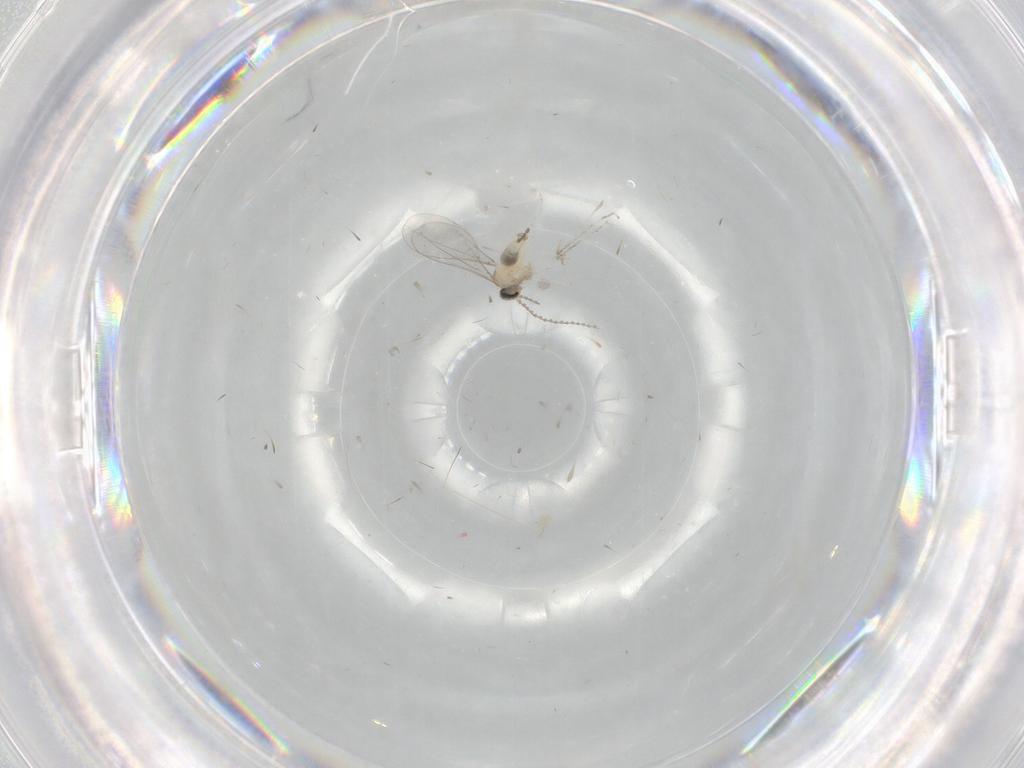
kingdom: Animalia
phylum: Arthropoda
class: Insecta
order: Diptera
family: Cecidomyiidae
